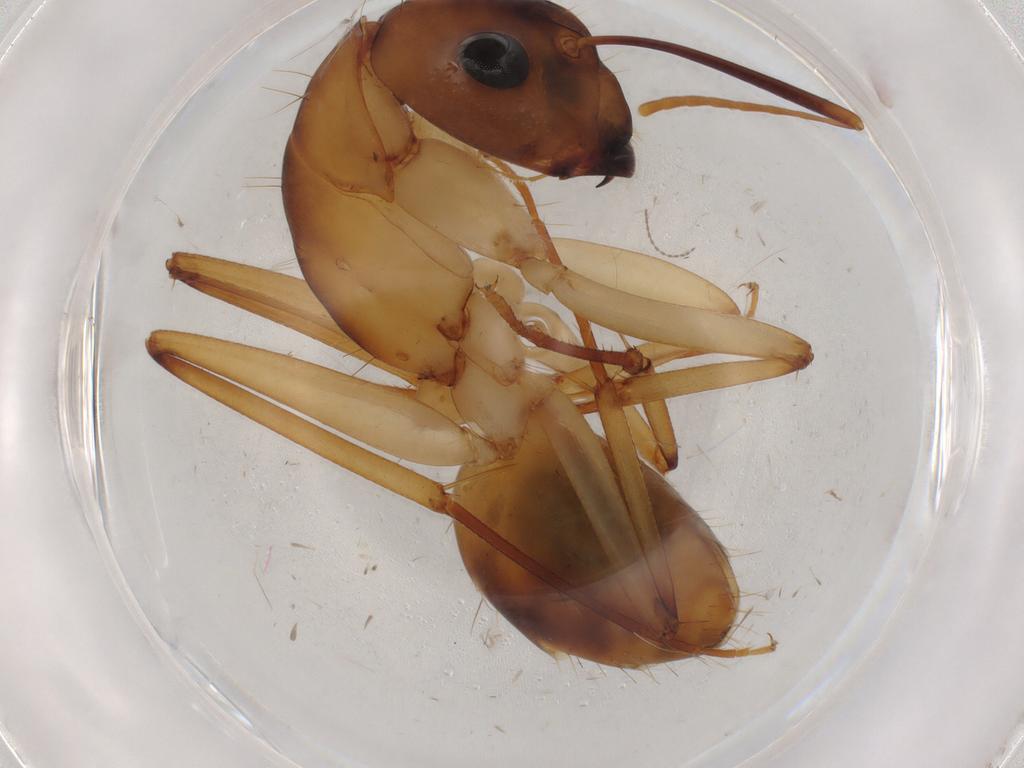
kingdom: Animalia
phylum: Arthropoda
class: Insecta
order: Hymenoptera
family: Formicidae
